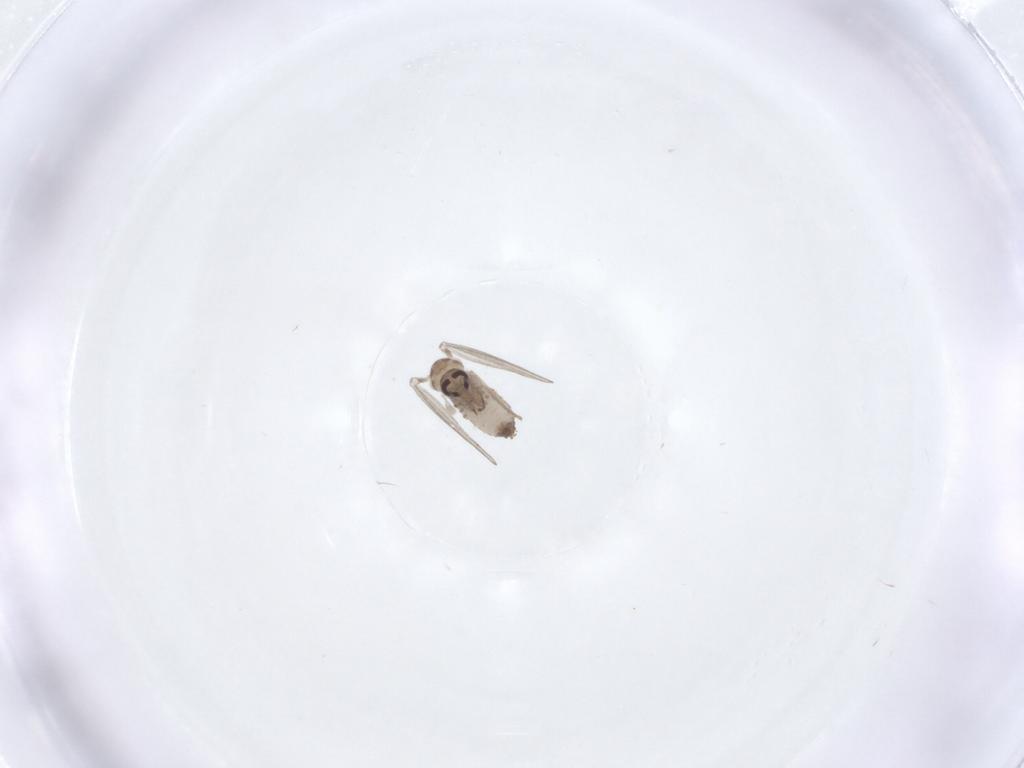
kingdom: Animalia
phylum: Arthropoda
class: Insecta
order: Diptera
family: Psychodidae
